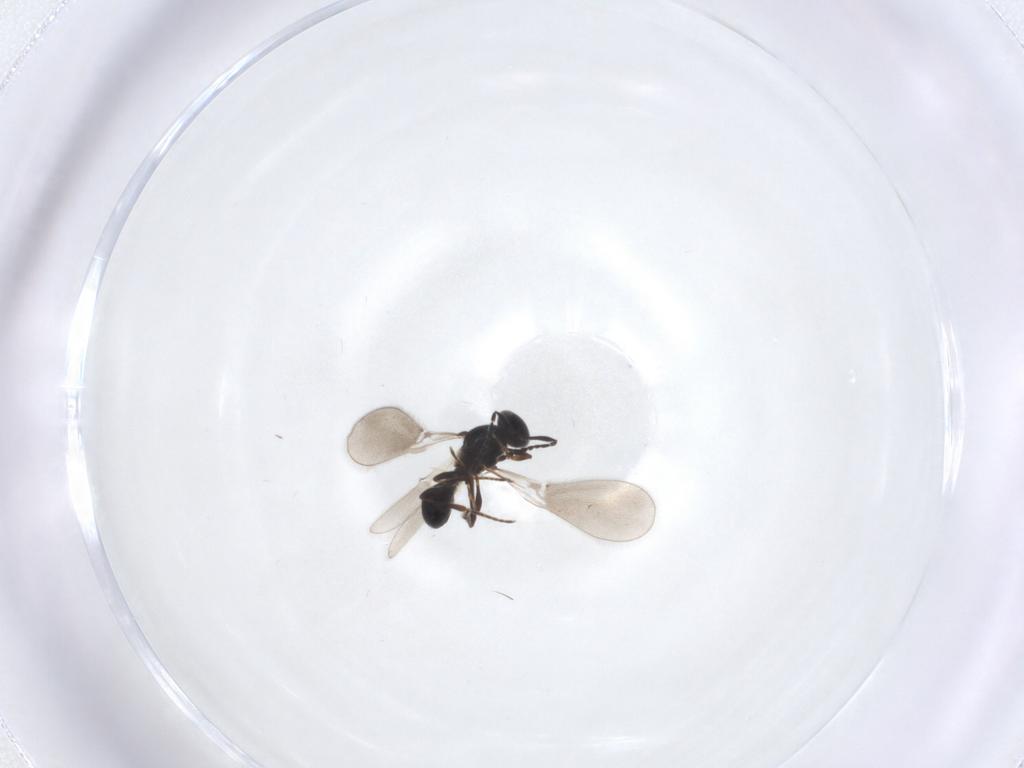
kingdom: Animalia
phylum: Arthropoda
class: Insecta
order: Hymenoptera
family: Platygastridae
